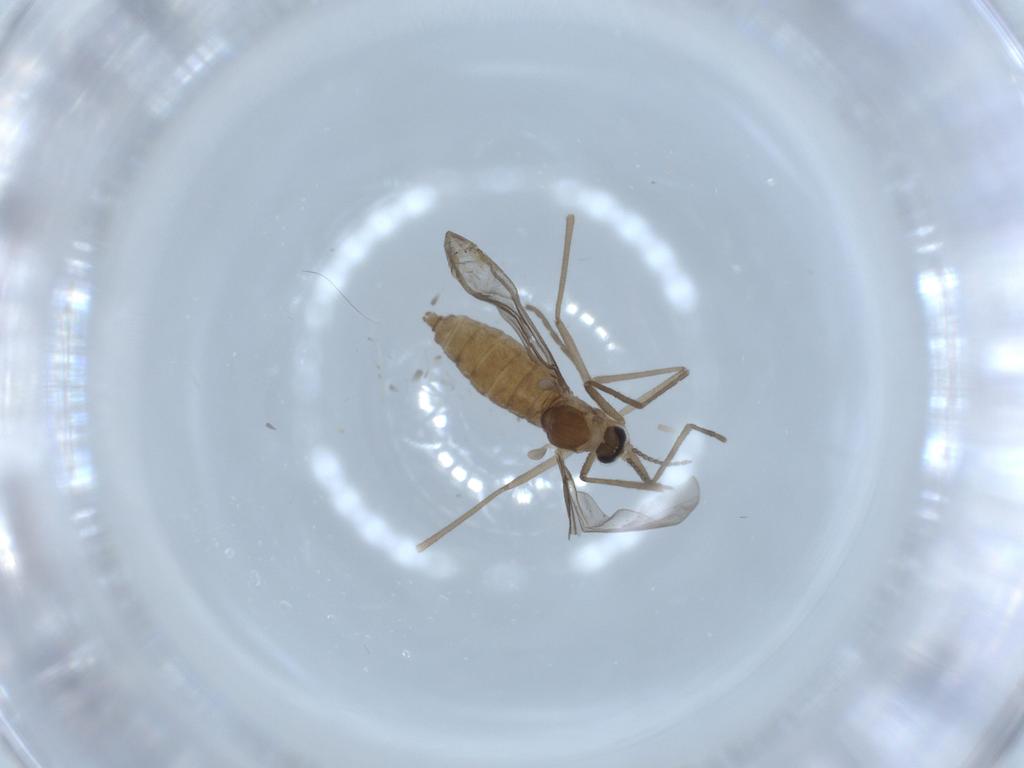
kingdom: Animalia
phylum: Arthropoda
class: Insecta
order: Diptera
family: Cecidomyiidae
